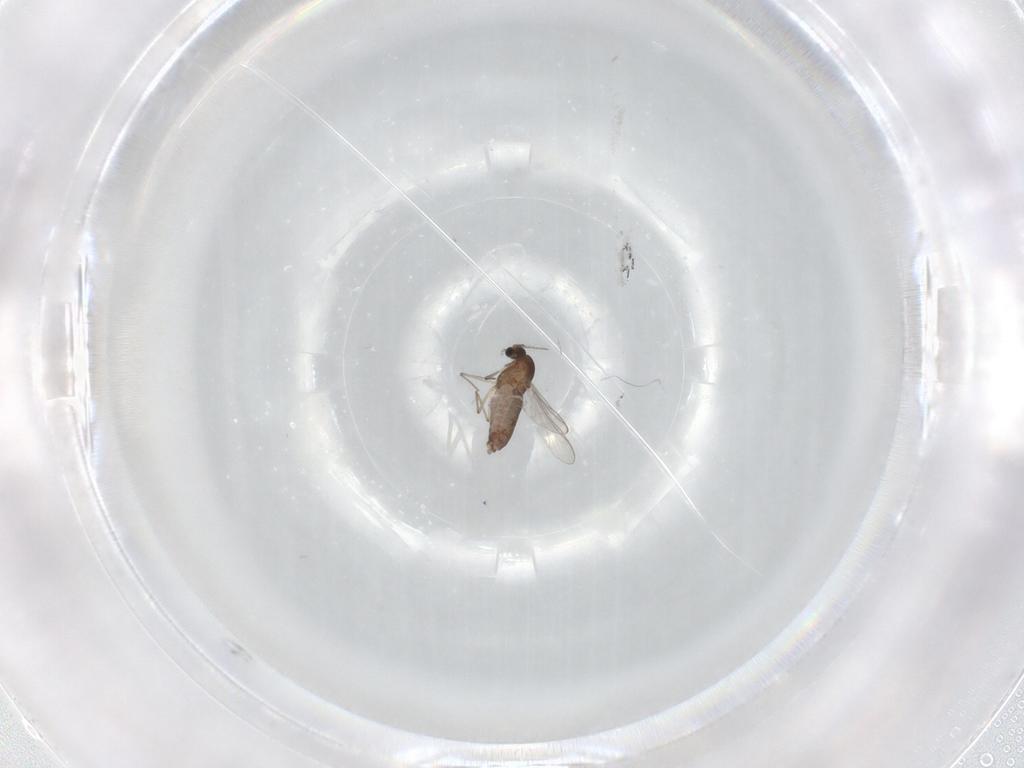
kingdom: Animalia
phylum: Arthropoda
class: Insecta
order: Diptera
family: Chironomidae
